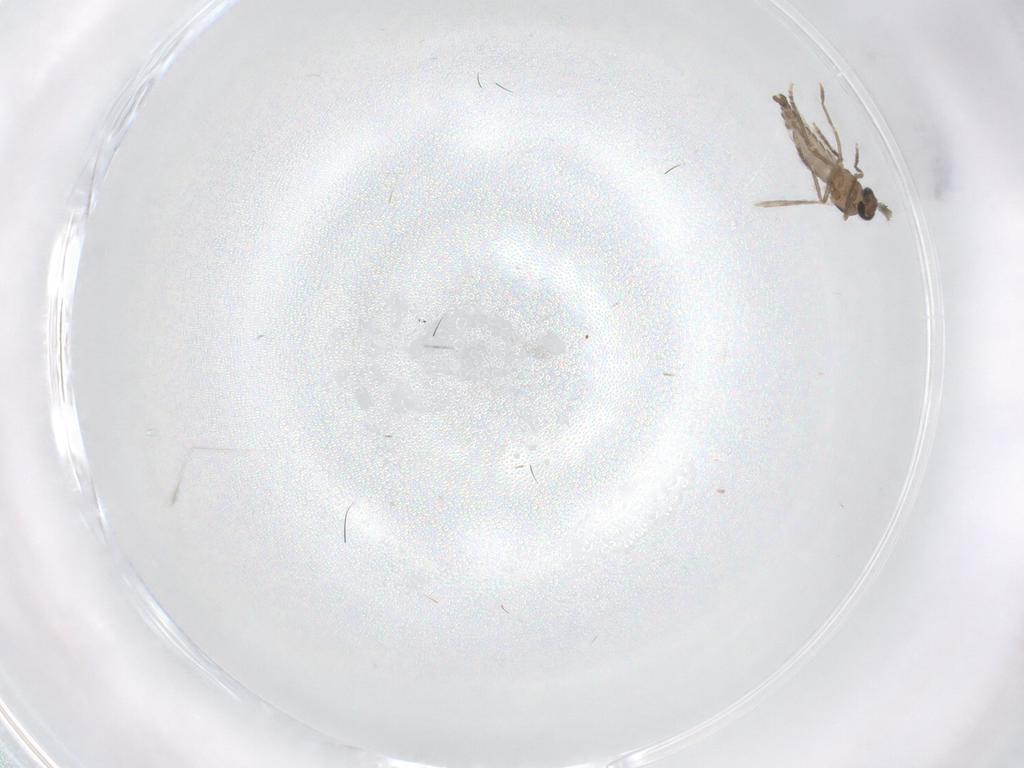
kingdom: Animalia
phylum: Arthropoda
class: Insecta
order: Diptera
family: Ceratopogonidae
